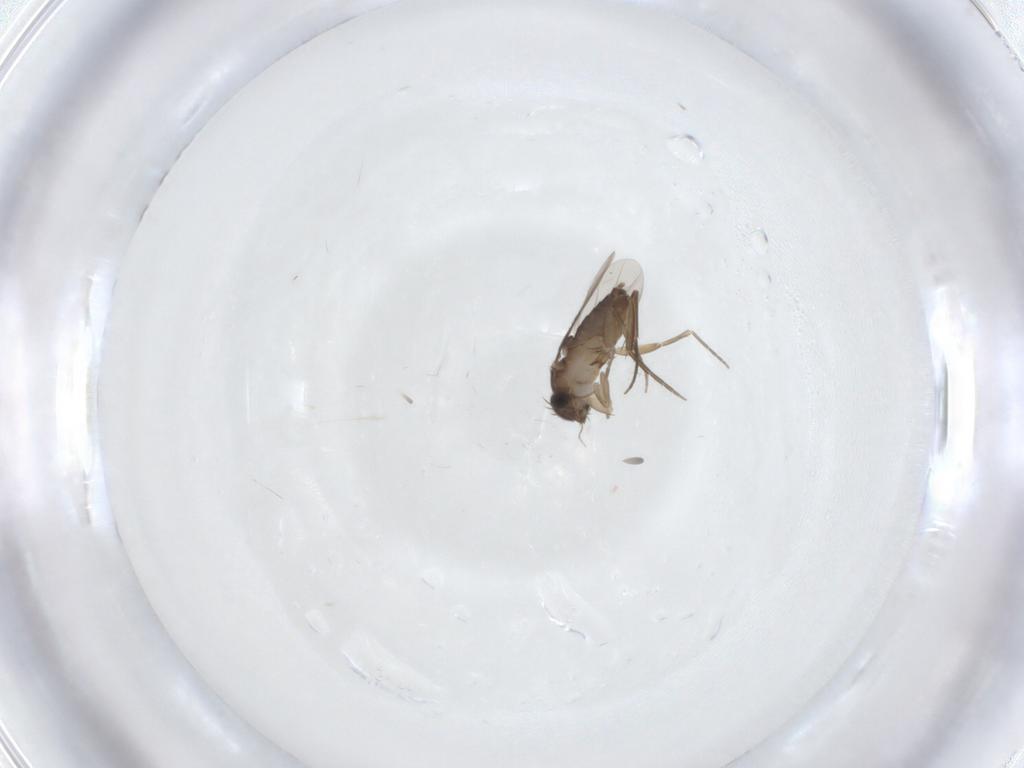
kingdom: Animalia
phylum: Arthropoda
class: Insecta
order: Diptera
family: Phoridae
